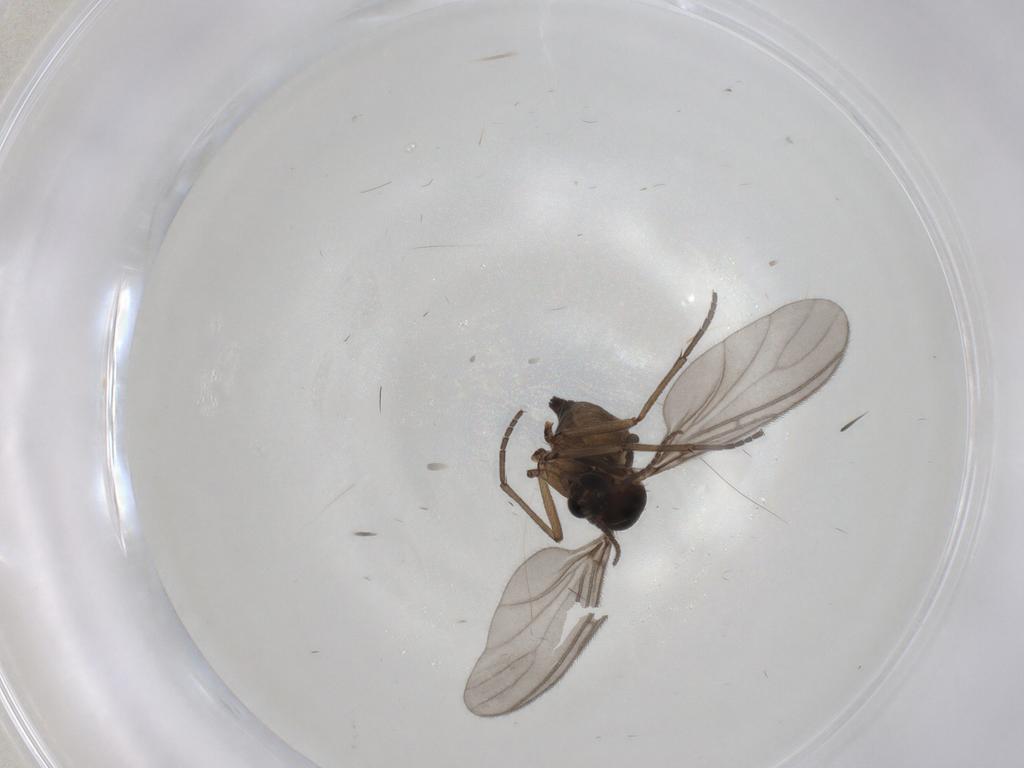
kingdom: Animalia
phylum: Arthropoda
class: Insecta
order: Diptera
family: Sciaridae
